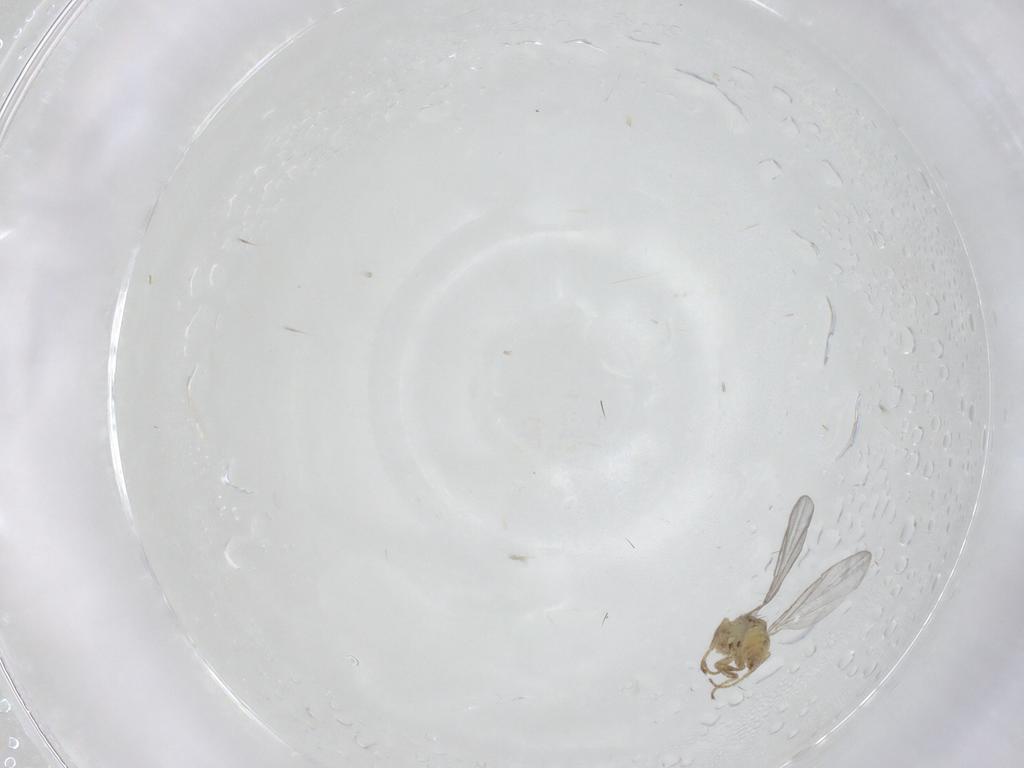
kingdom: Animalia
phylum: Arthropoda
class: Insecta
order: Diptera
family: Agromyzidae
